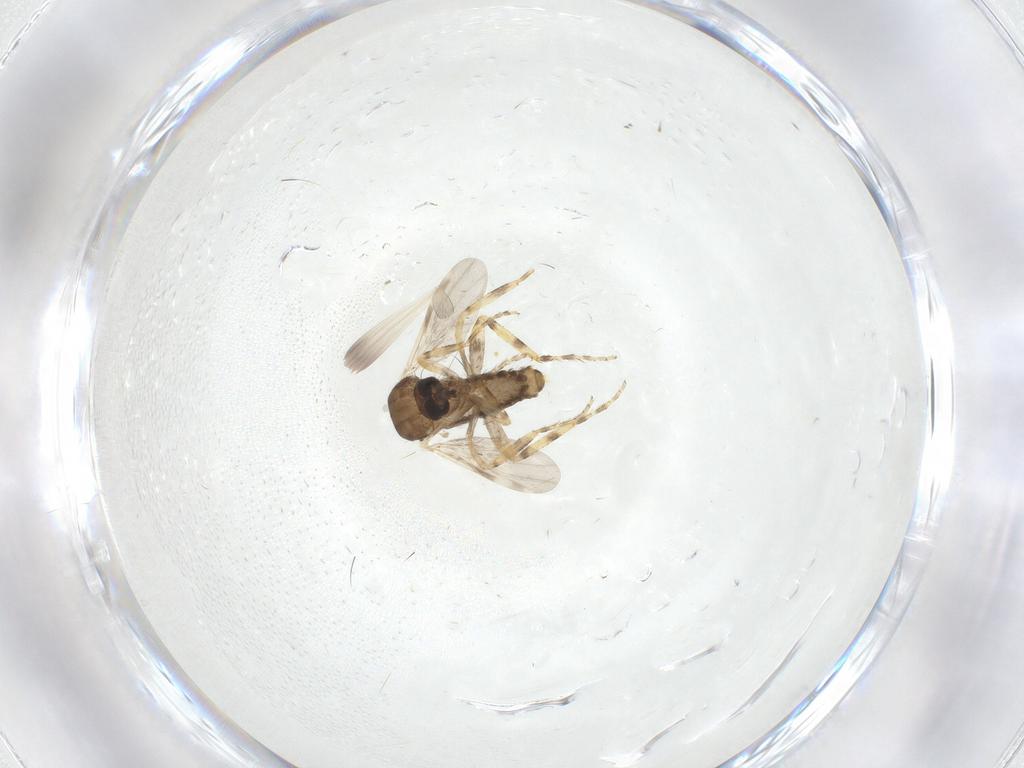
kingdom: Animalia
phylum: Arthropoda
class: Insecta
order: Diptera
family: Ceratopogonidae
